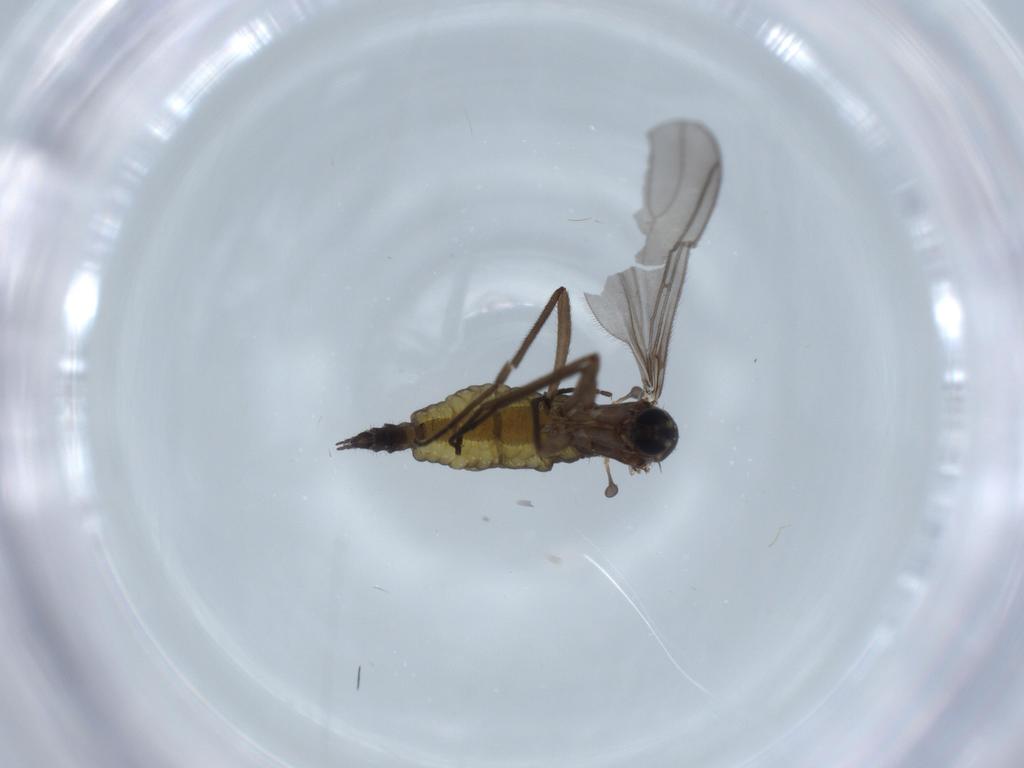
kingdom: Animalia
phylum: Arthropoda
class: Insecta
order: Diptera
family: Sciaridae
